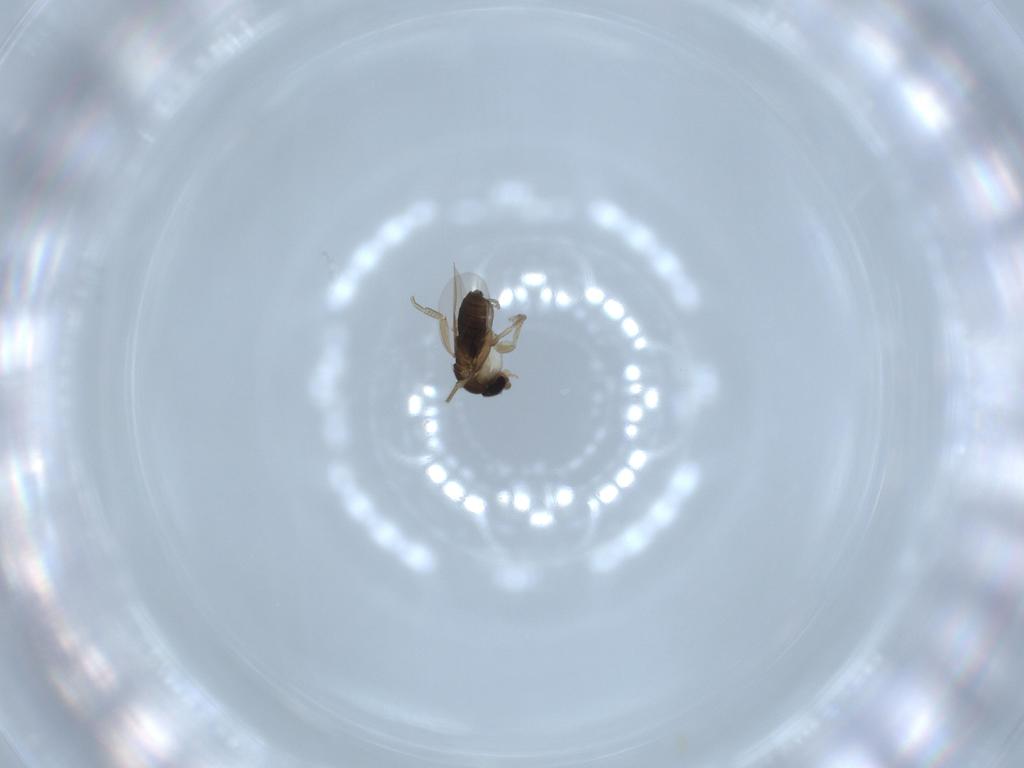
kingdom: Animalia
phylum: Arthropoda
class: Insecta
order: Diptera
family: Phoridae
